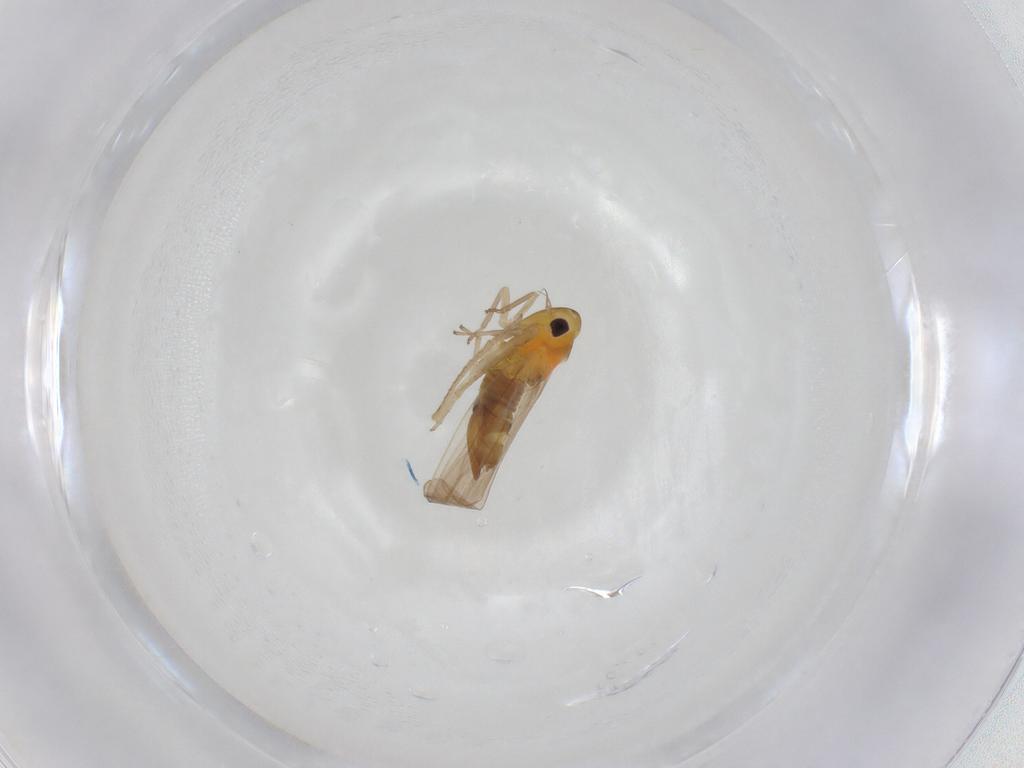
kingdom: Animalia
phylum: Arthropoda
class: Insecta
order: Hemiptera
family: Cicadellidae
